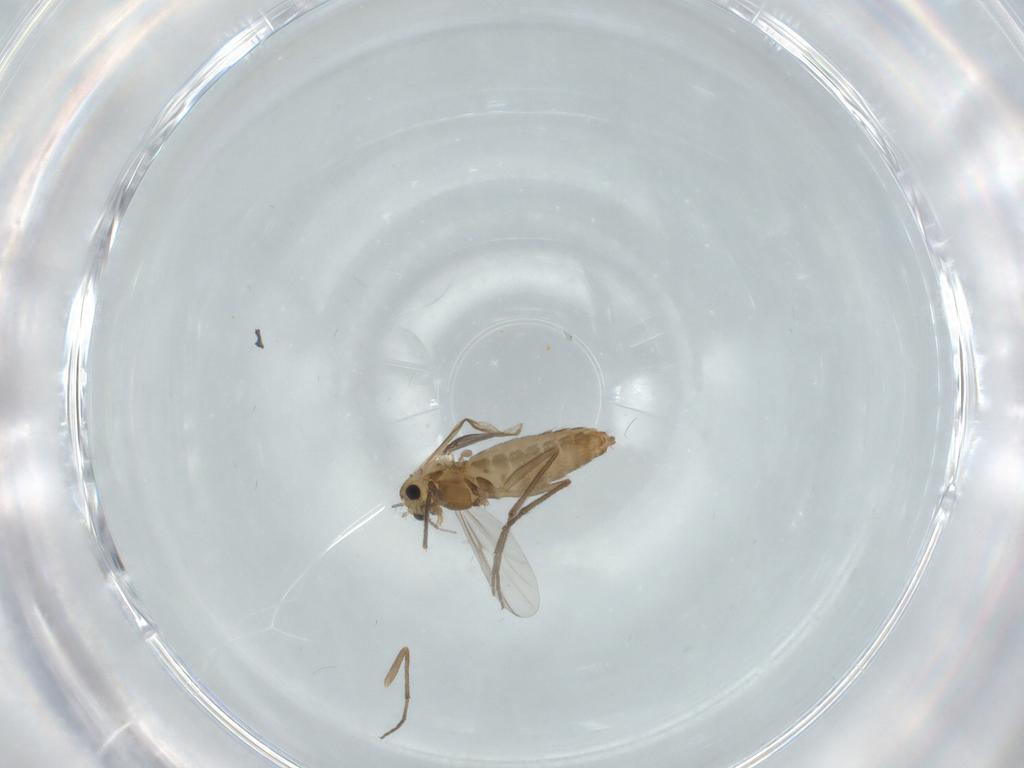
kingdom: Animalia
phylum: Arthropoda
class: Insecta
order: Diptera
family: Chironomidae
